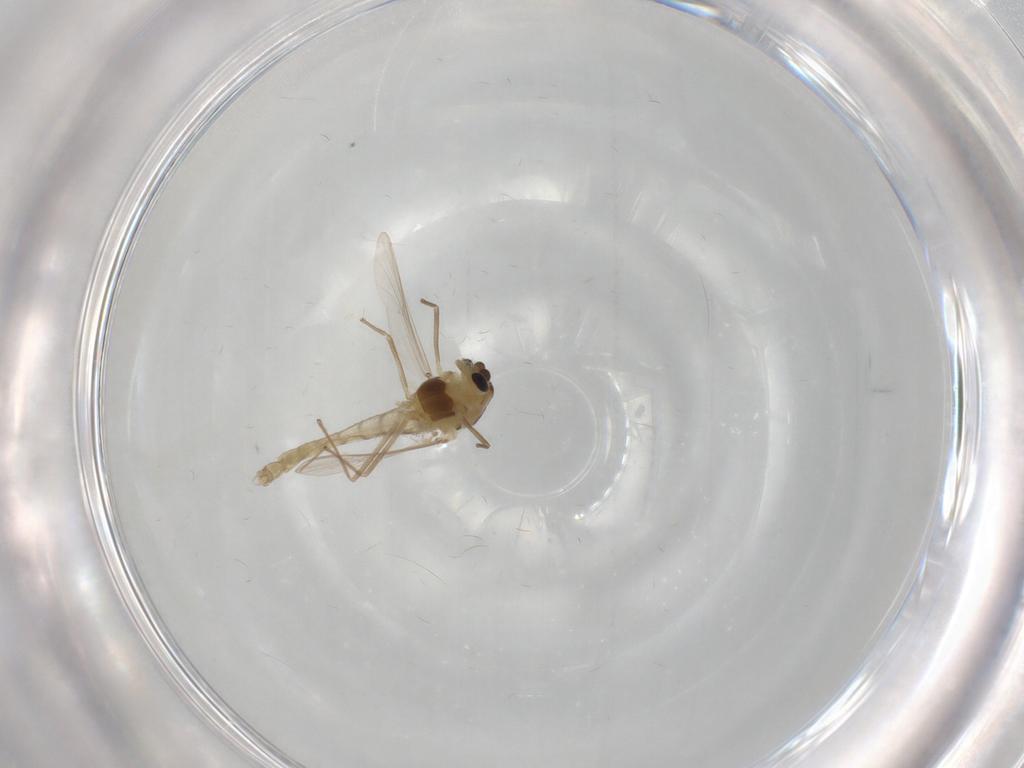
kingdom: Animalia
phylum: Arthropoda
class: Insecta
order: Diptera
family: Chironomidae
